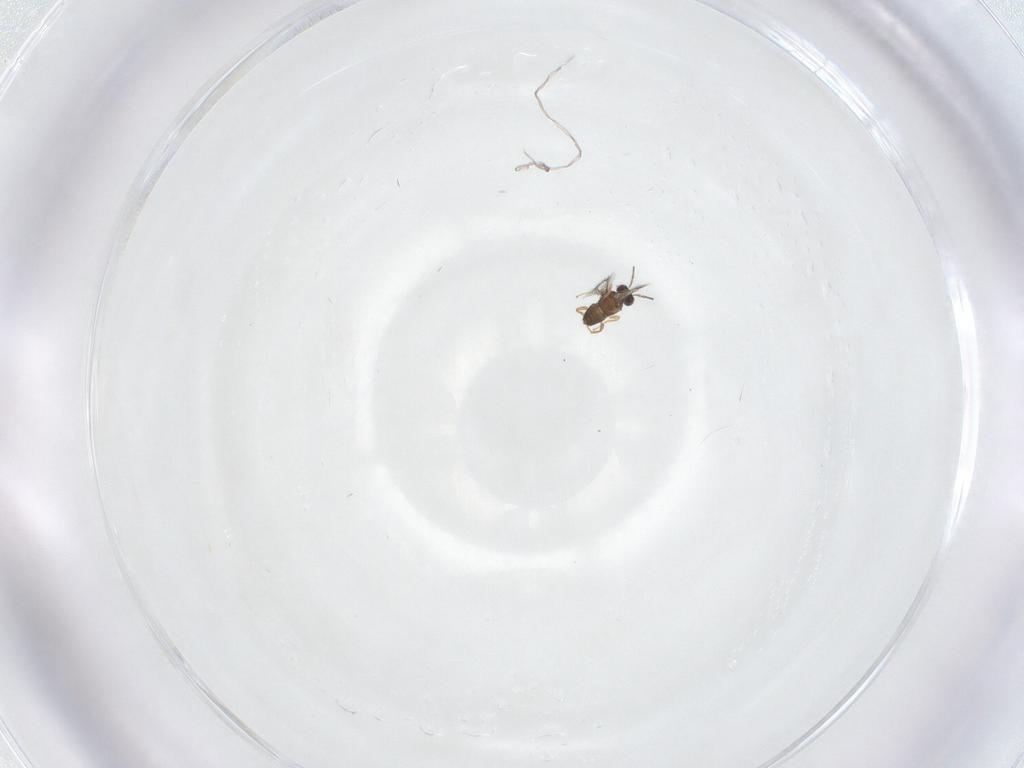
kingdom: Animalia
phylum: Arthropoda
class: Insecta
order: Hymenoptera
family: Mymaridae
